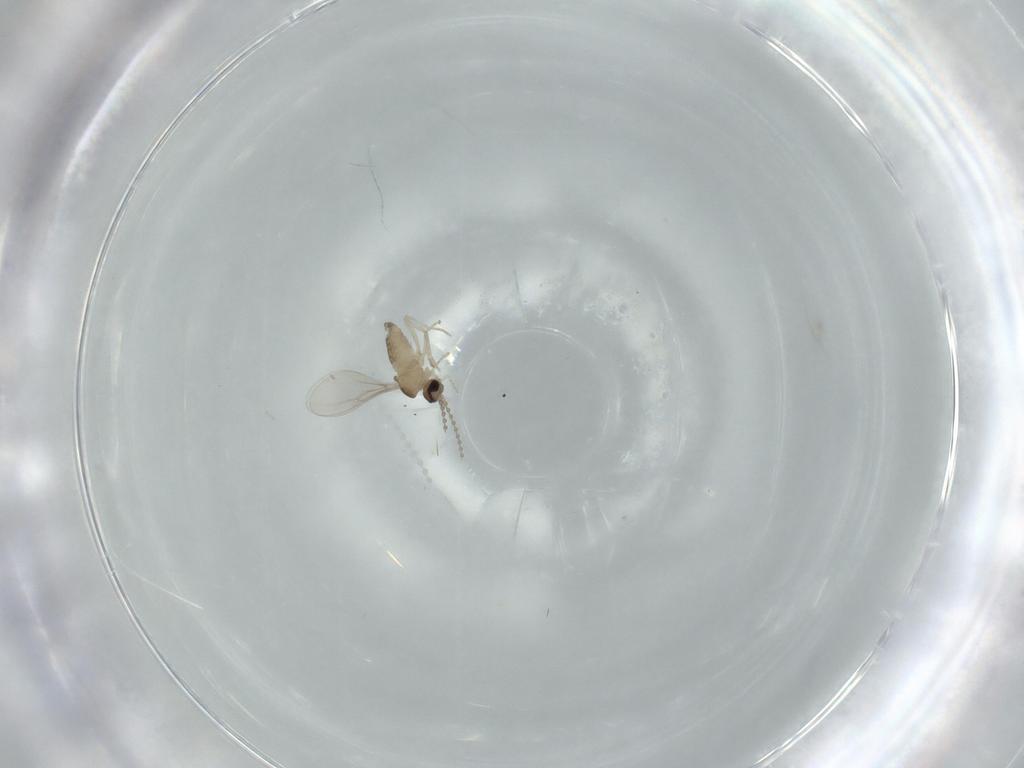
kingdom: Animalia
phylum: Arthropoda
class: Insecta
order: Diptera
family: Cecidomyiidae
